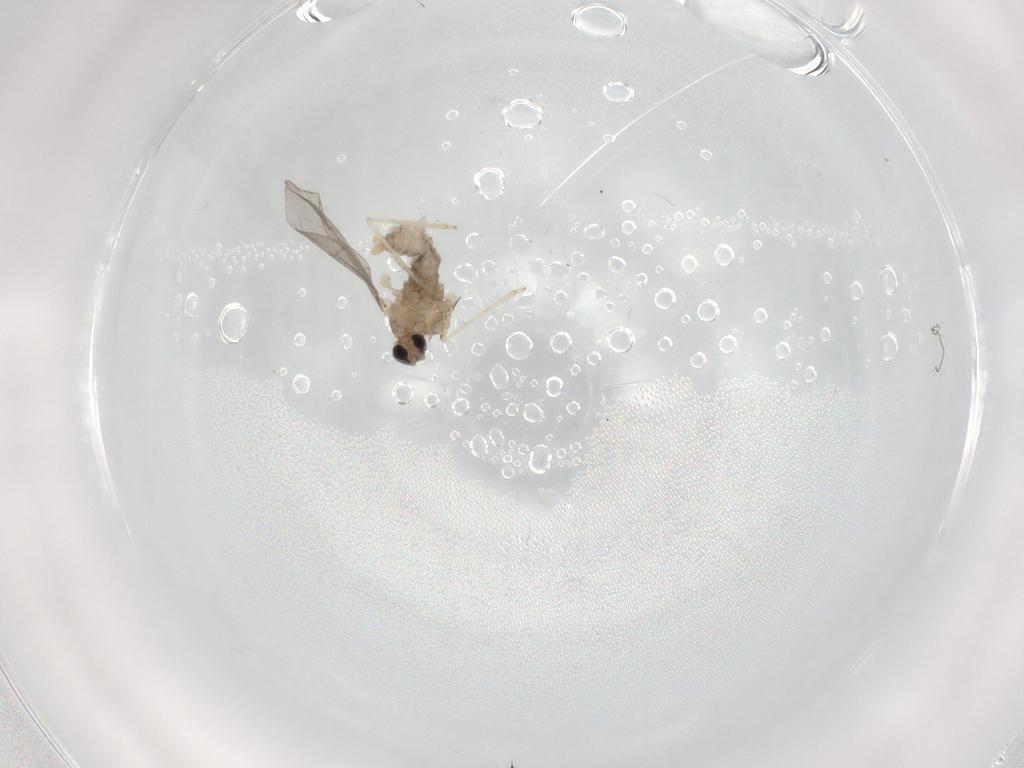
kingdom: Animalia
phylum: Arthropoda
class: Insecta
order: Diptera
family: Cecidomyiidae
